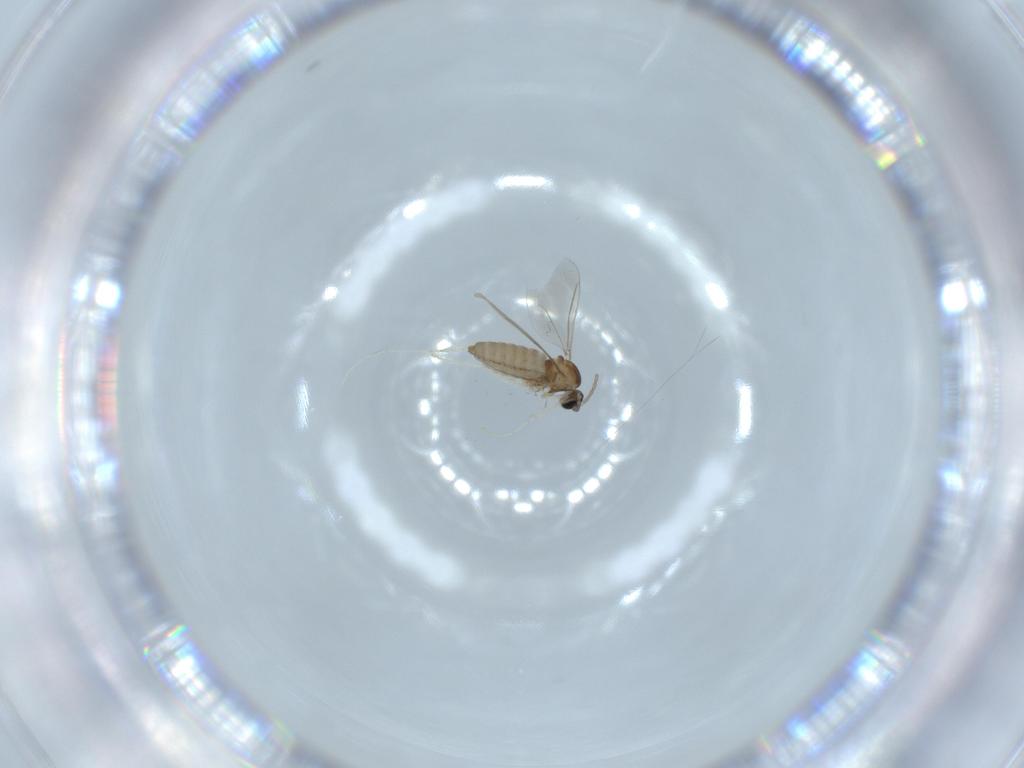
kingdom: Animalia
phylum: Arthropoda
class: Insecta
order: Diptera
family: Cecidomyiidae
